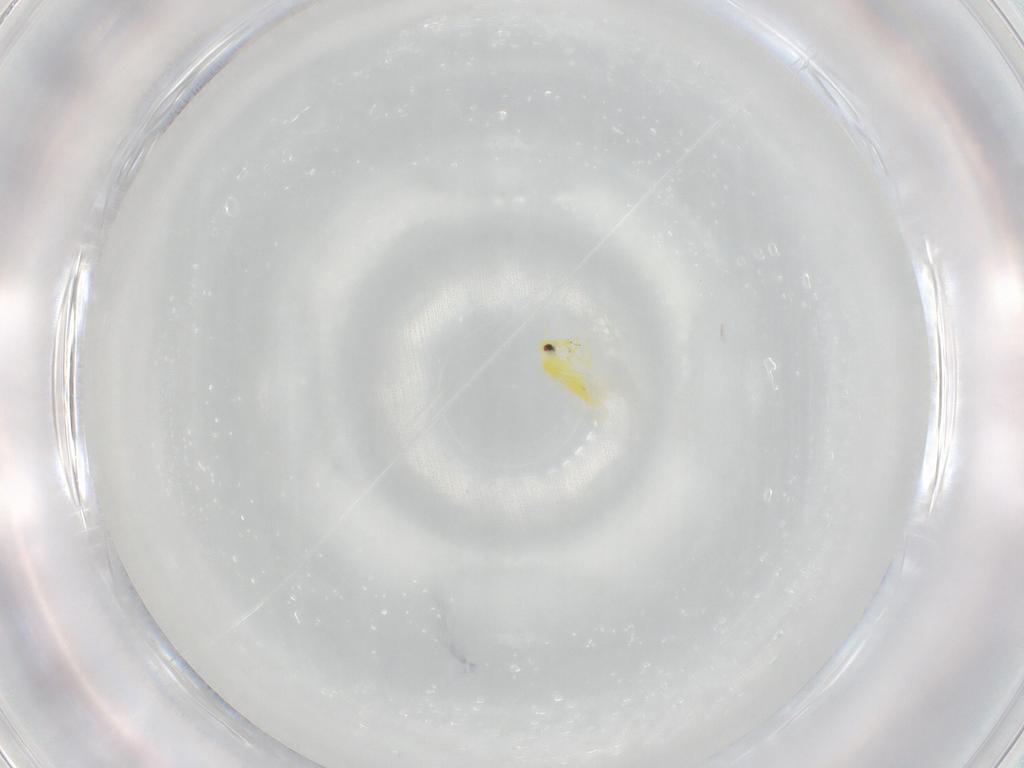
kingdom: Animalia
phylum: Arthropoda
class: Insecta
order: Hemiptera
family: Aleyrodidae
